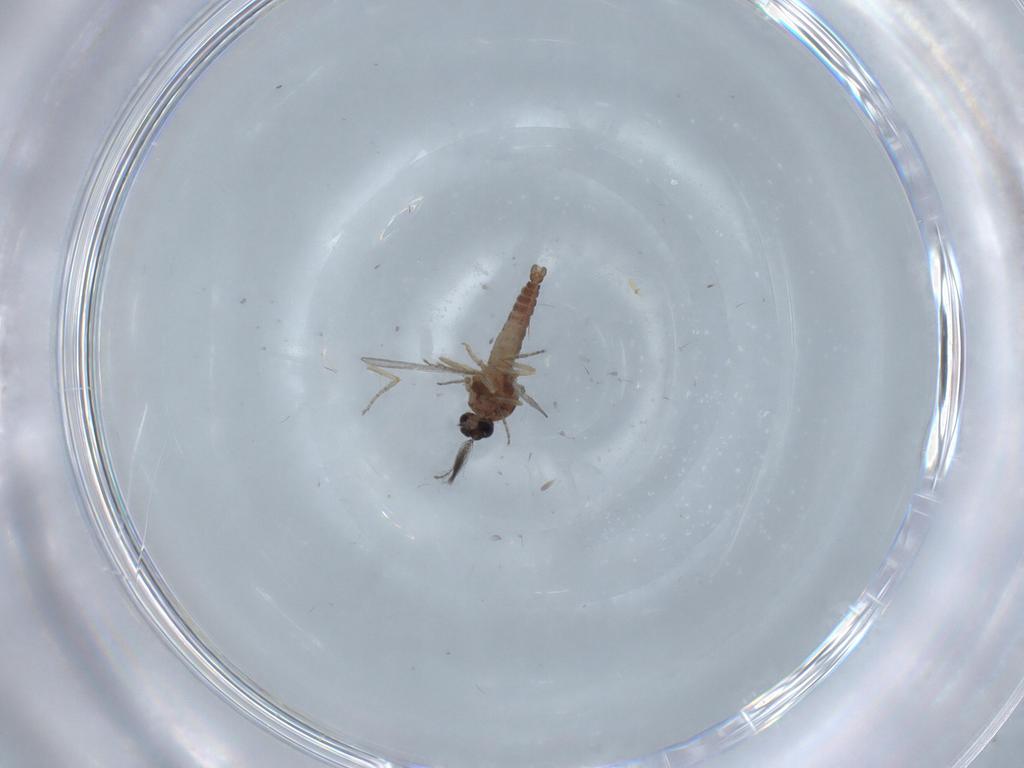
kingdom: Animalia
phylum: Arthropoda
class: Insecta
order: Diptera
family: Ceratopogonidae
